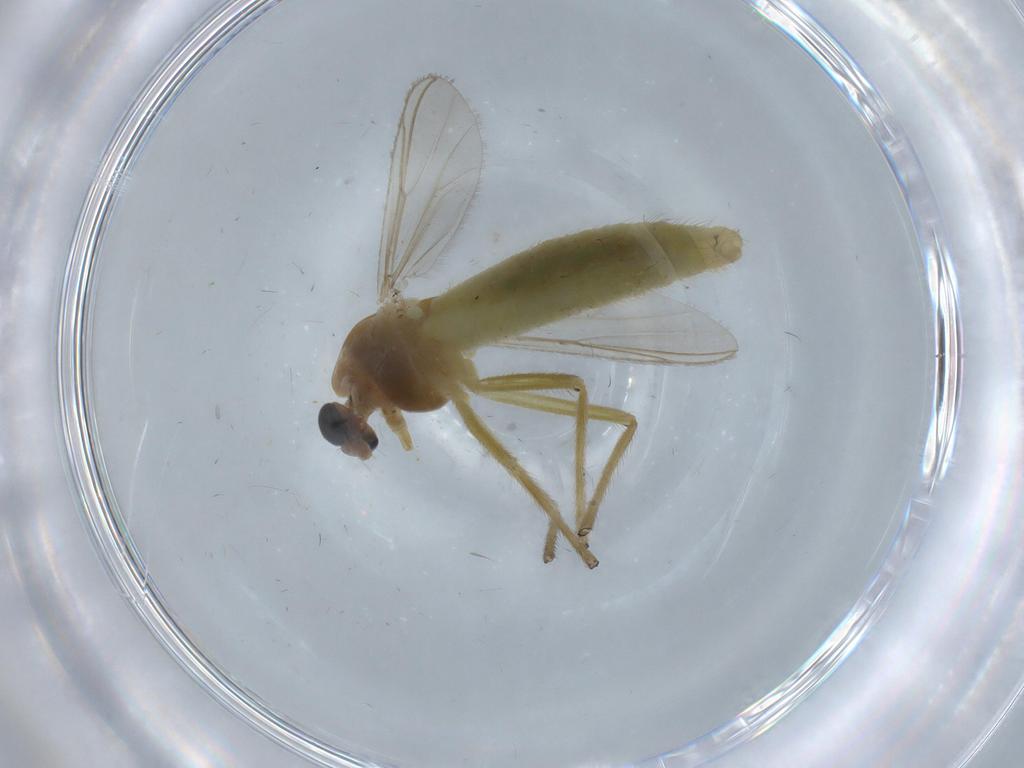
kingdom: Animalia
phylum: Arthropoda
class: Insecta
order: Diptera
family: Chironomidae
